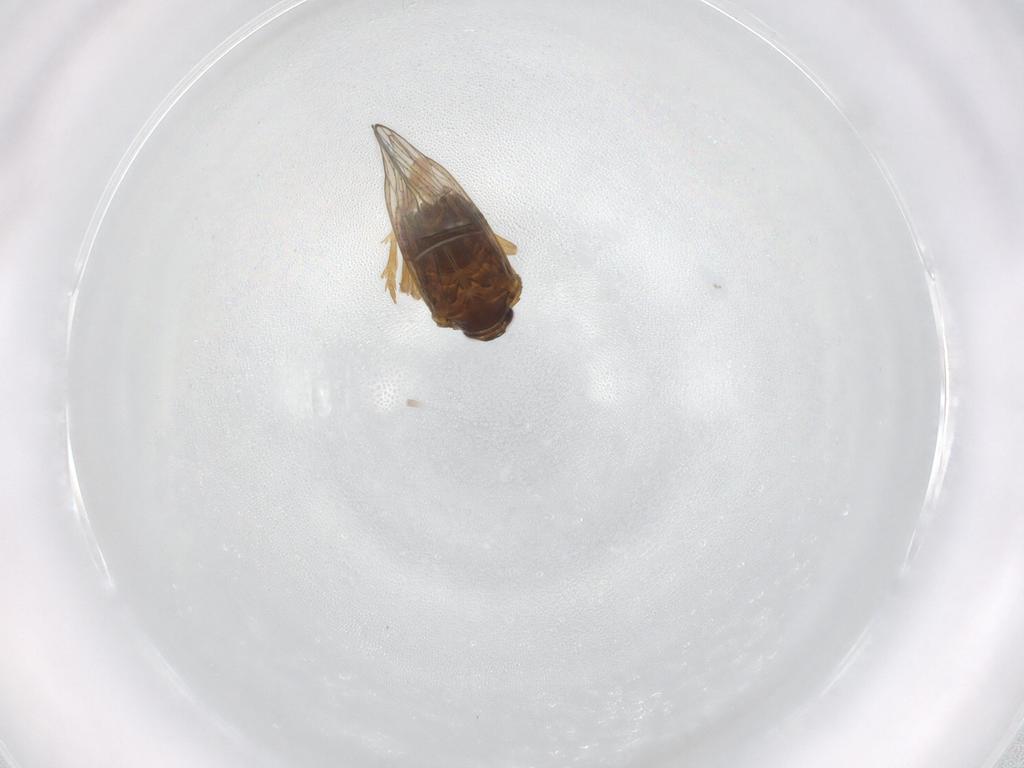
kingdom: Animalia
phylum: Arthropoda
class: Insecta
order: Hemiptera
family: Delphacidae
